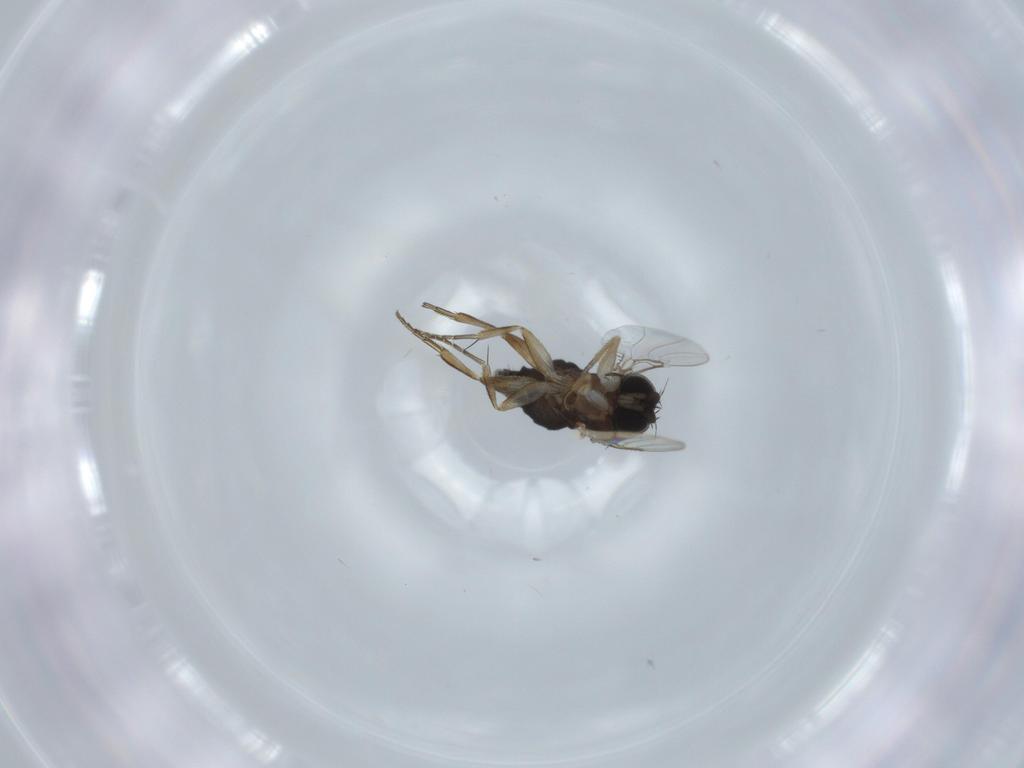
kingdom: Animalia
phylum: Arthropoda
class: Insecta
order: Diptera
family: Phoridae
